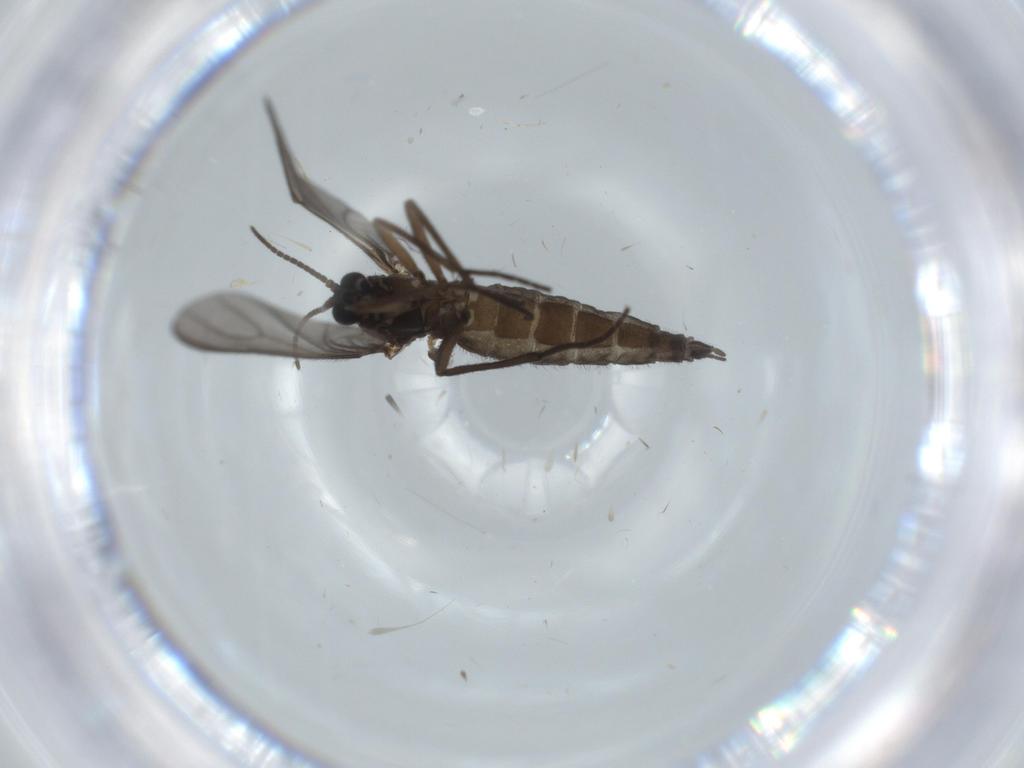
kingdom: Animalia
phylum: Arthropoda
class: Insecta
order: Diptera
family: Sciaridae
